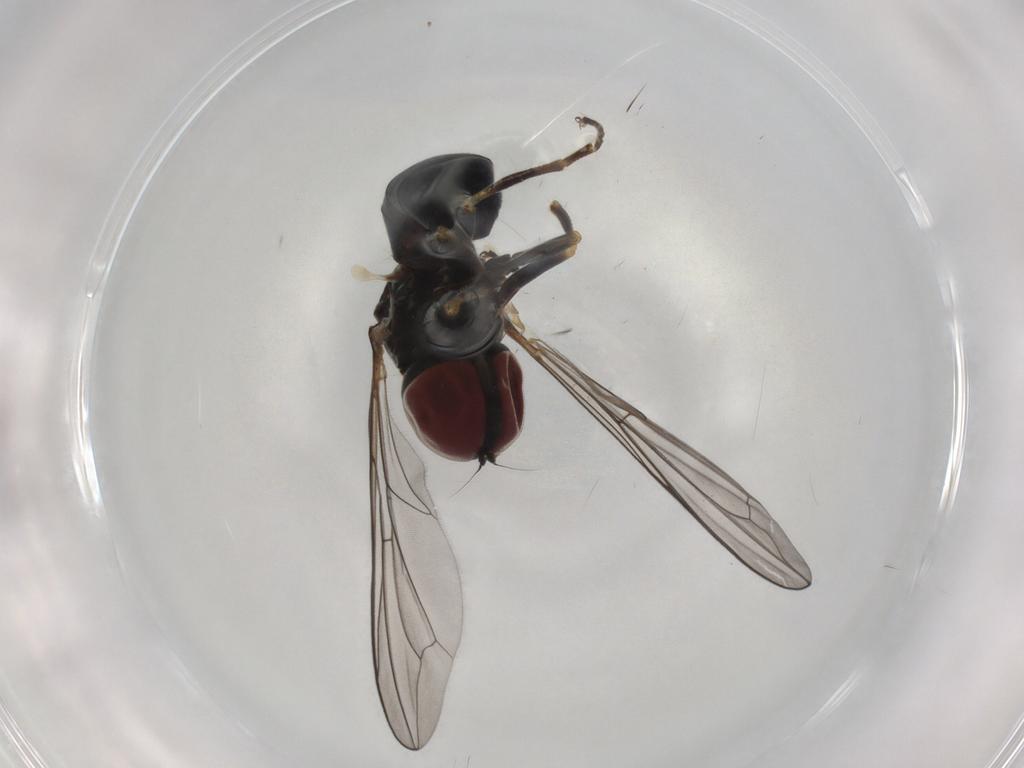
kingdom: Animalia
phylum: Arthropoda
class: Insecta
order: Diptera
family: Pipunculidae
